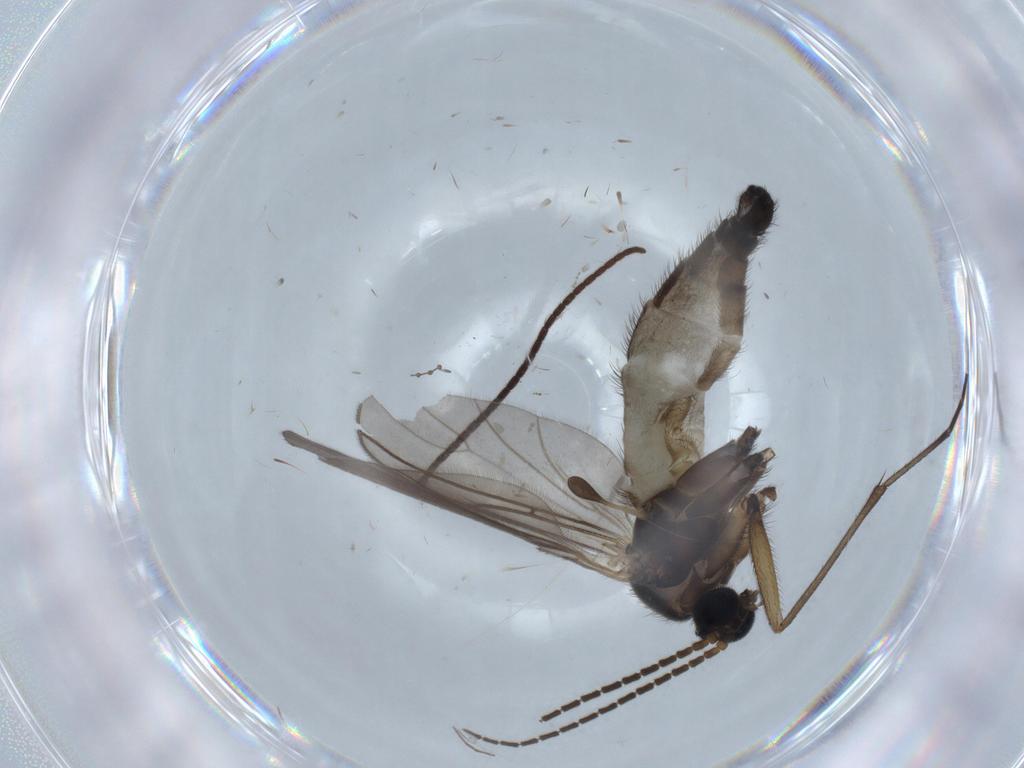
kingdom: Animalia
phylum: Arthropoda
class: Insecta
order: Diptera
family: Sciaridae
